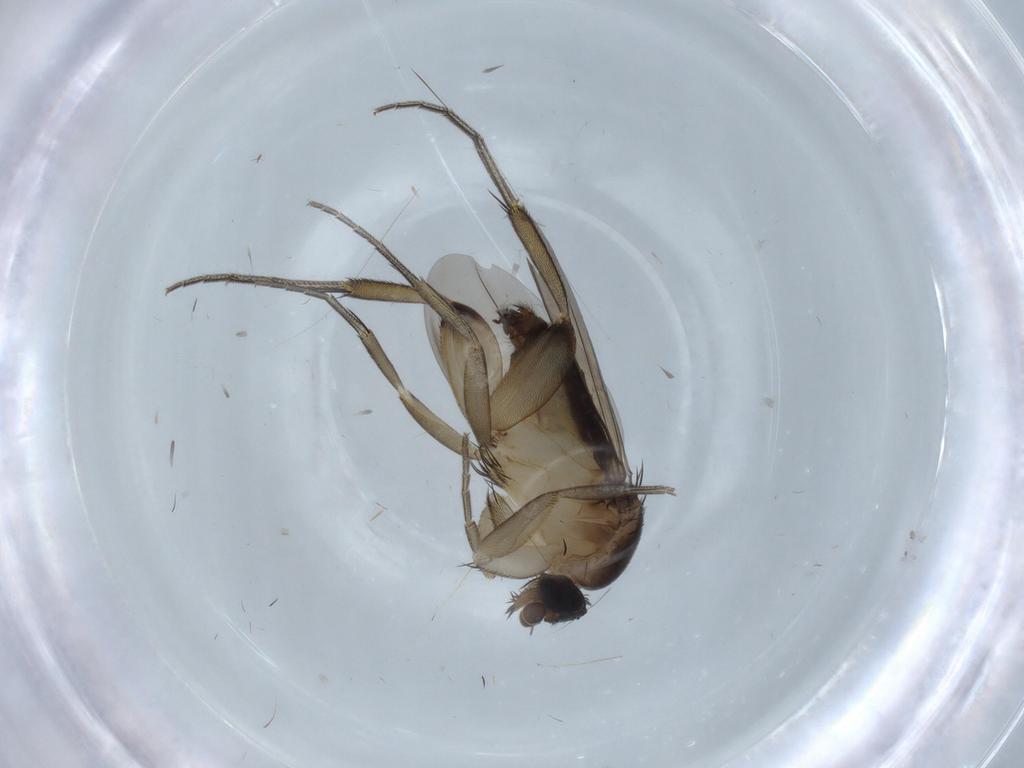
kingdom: Animalia
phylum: Arthropoda
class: Insecta
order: Diptera
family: Phoridae
